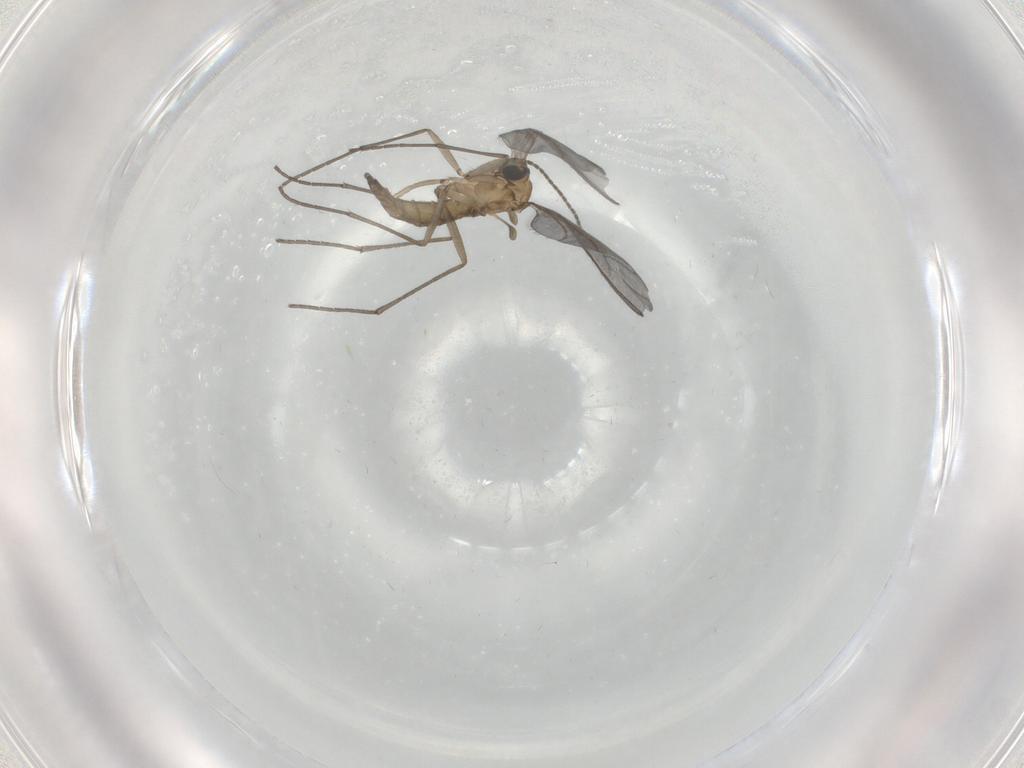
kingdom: Animalia
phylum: Arthropoda
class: Insecta
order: Diptera
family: Sciaridae
